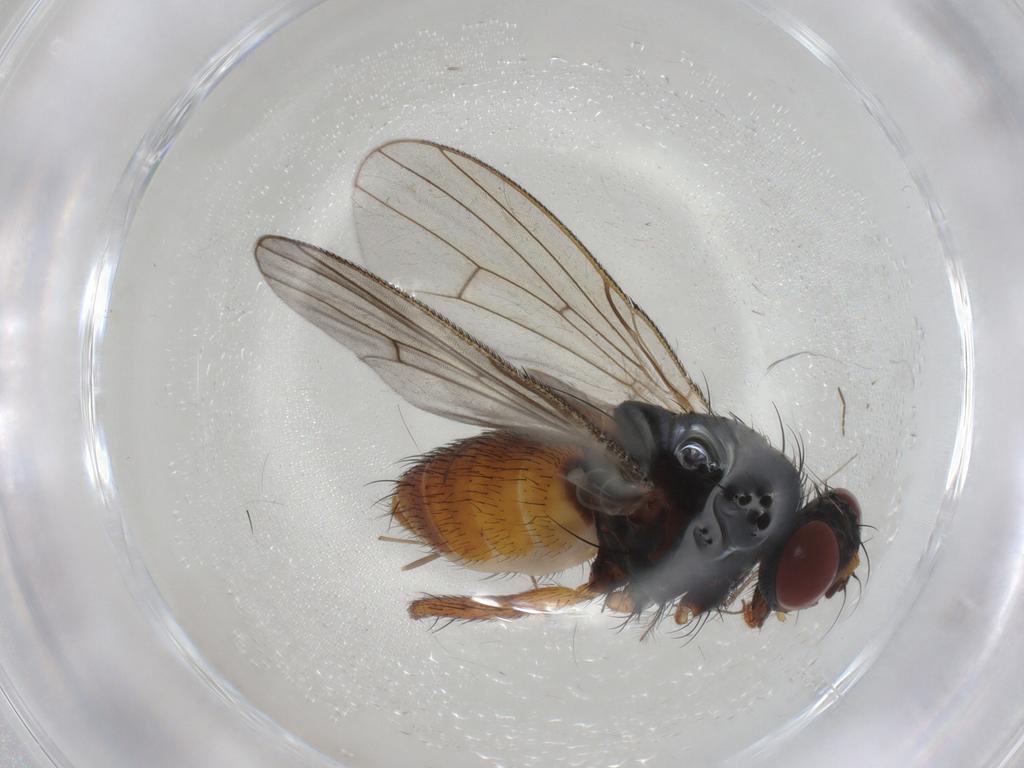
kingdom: Animalia
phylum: Arthropoda
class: Insecta
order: Diptera
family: Muscidae
